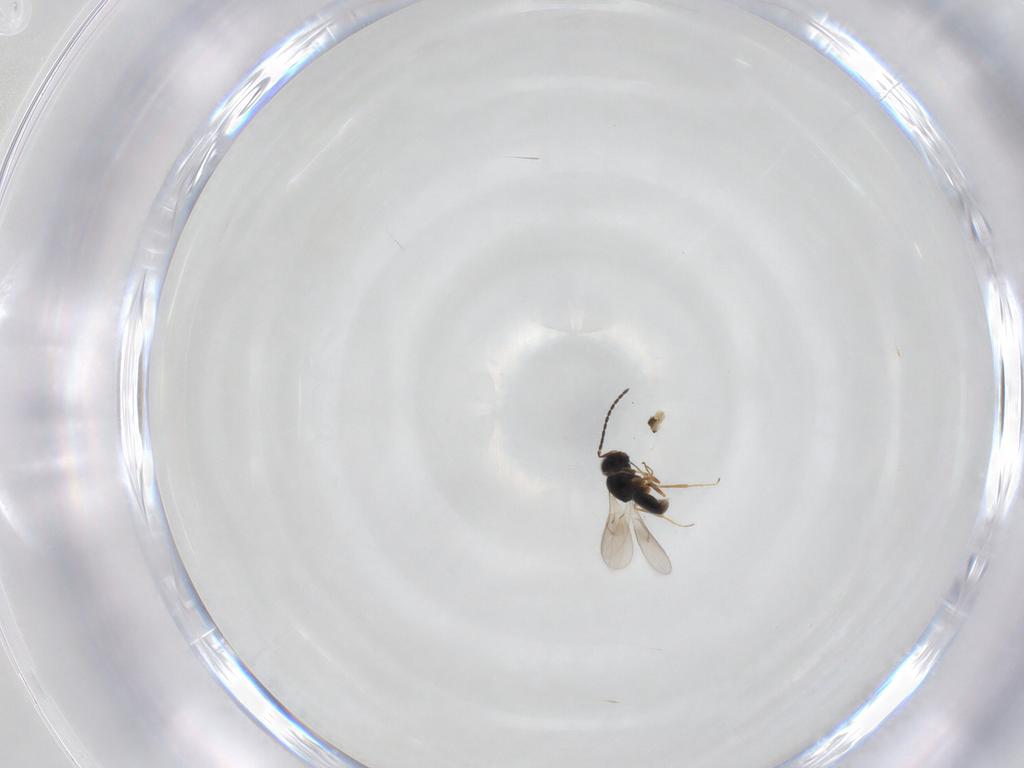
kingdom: Animalia
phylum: Arthropoda
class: Insecta
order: Hymenoptera
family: Scelionidae
